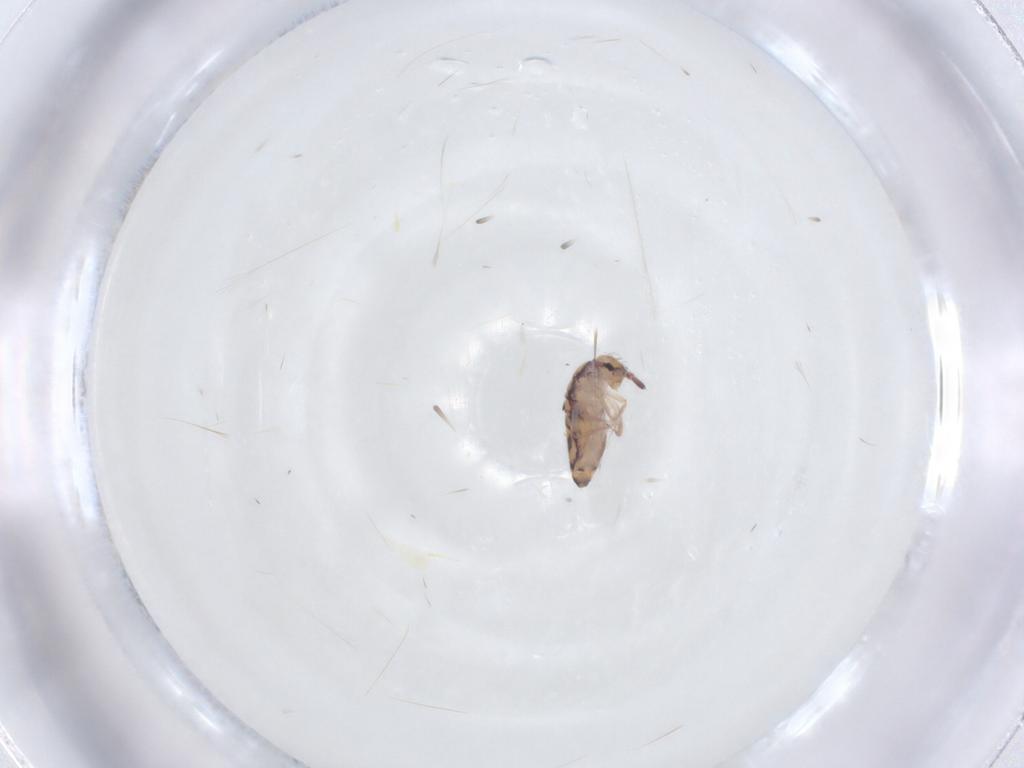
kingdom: Animalia
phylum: Arthropoda
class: Collembola
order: Entomobryomorpha
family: Entomobryidae
